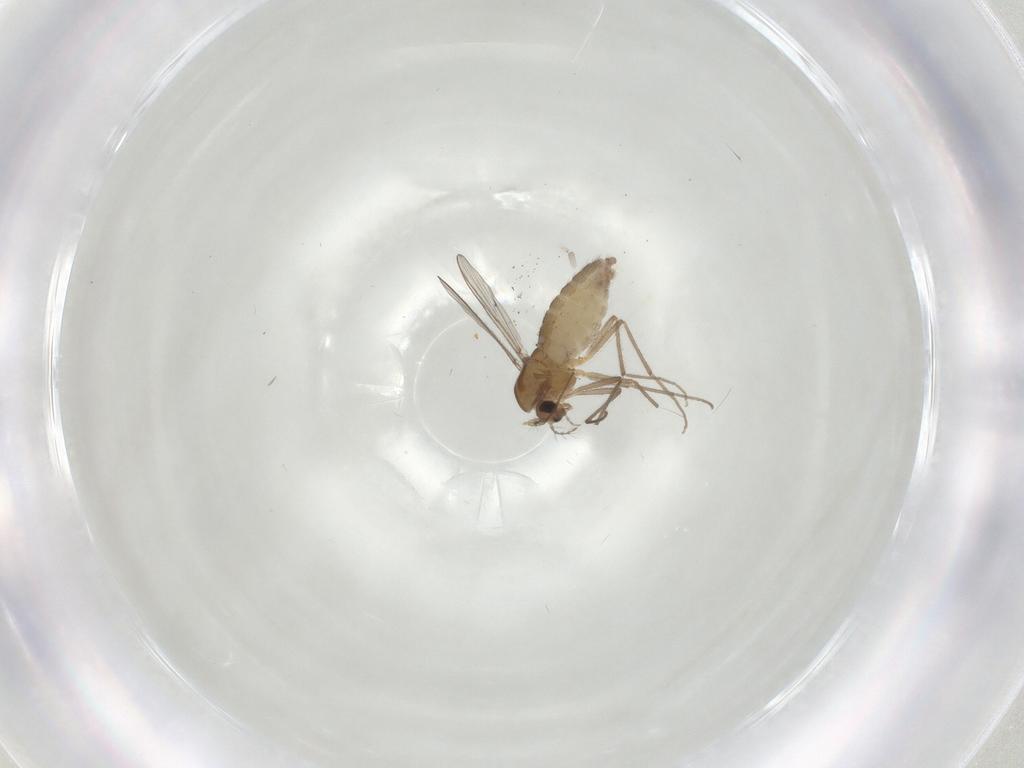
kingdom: Animalia
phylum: Arthropoda
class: Insecta
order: Diptera
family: Chironomidae
